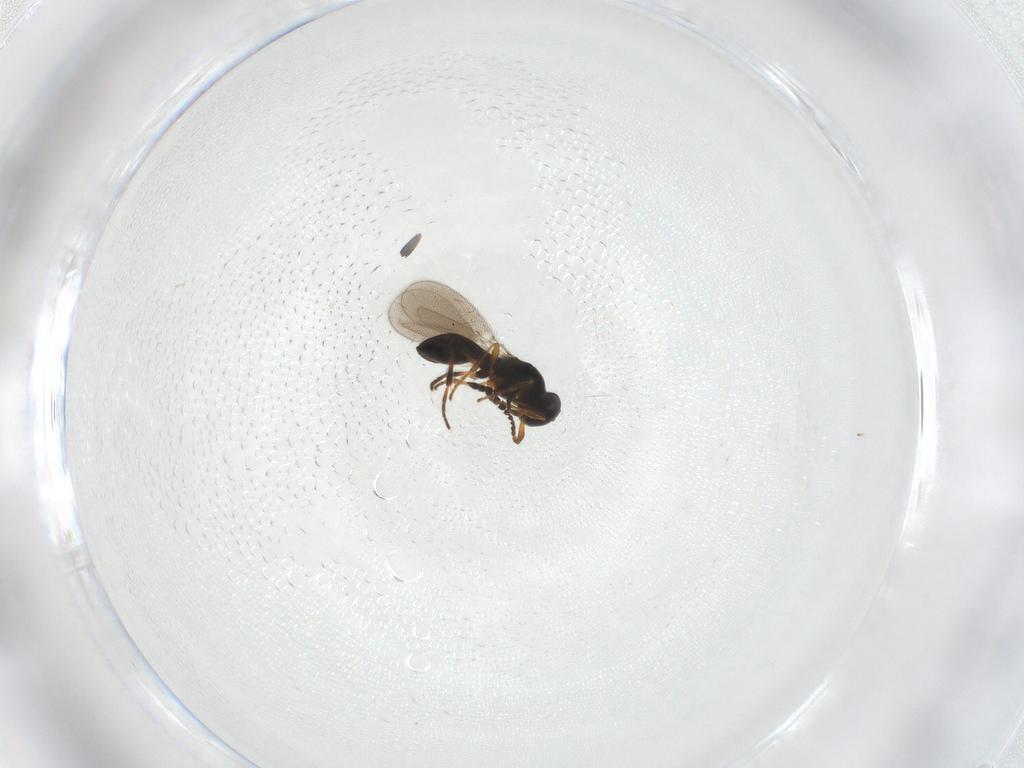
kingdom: Animalia
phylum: Arthropoda
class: Insecta
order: Hymenoptera
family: Platygastridae
